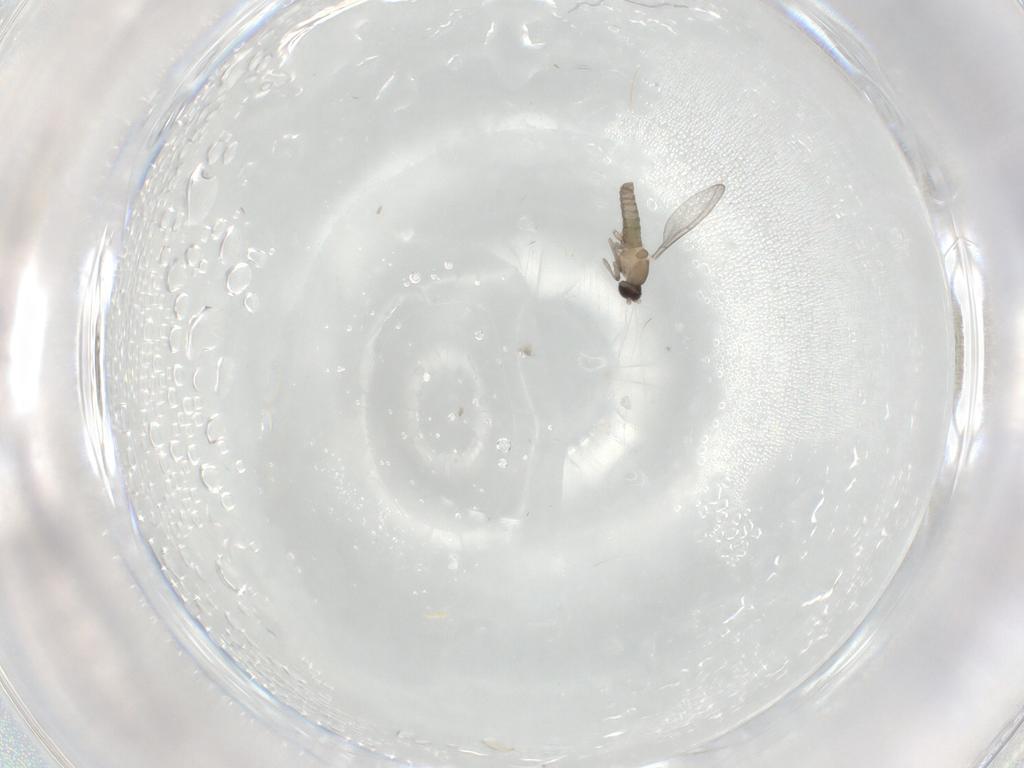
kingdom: Animalia
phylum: Arthropoda
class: Insecta
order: Diptera
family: Cecidomyiidae
